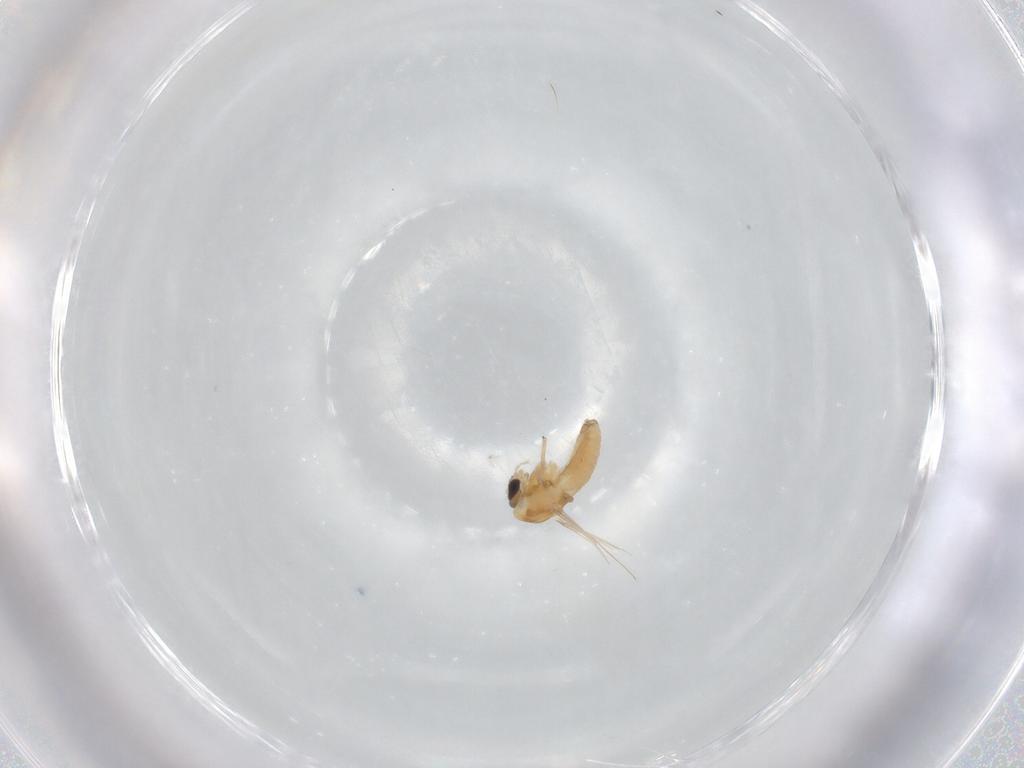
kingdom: Animalia
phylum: Arthropoda
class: Insecta
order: Diptera
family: Chironomidae
